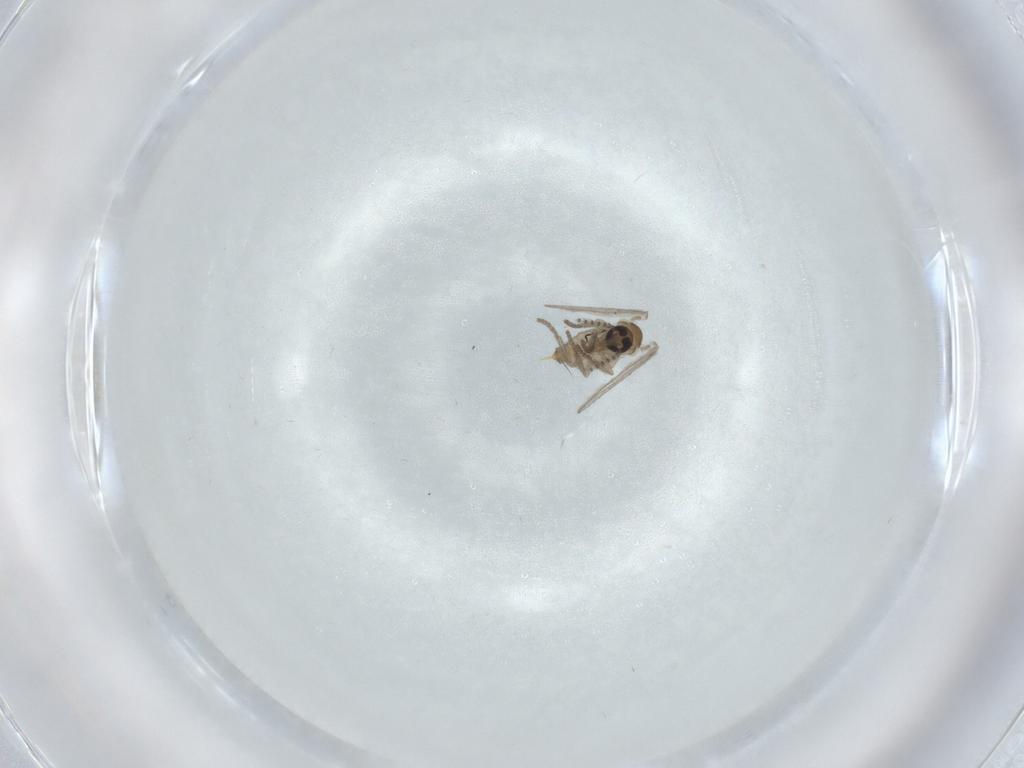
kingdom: Animalia
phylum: Arthropoda
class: Insecta
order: Diptera
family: Psychodidae
